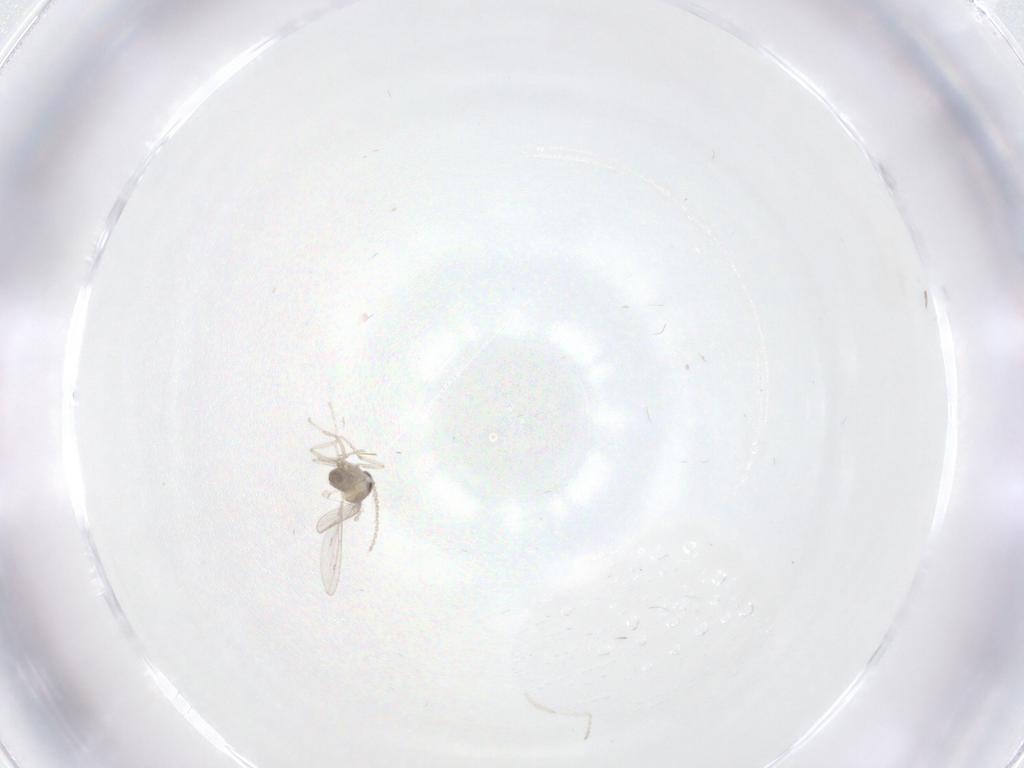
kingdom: Animalia
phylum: Arthropoda
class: Insecta
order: Diptera
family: Cecidomyiidae
